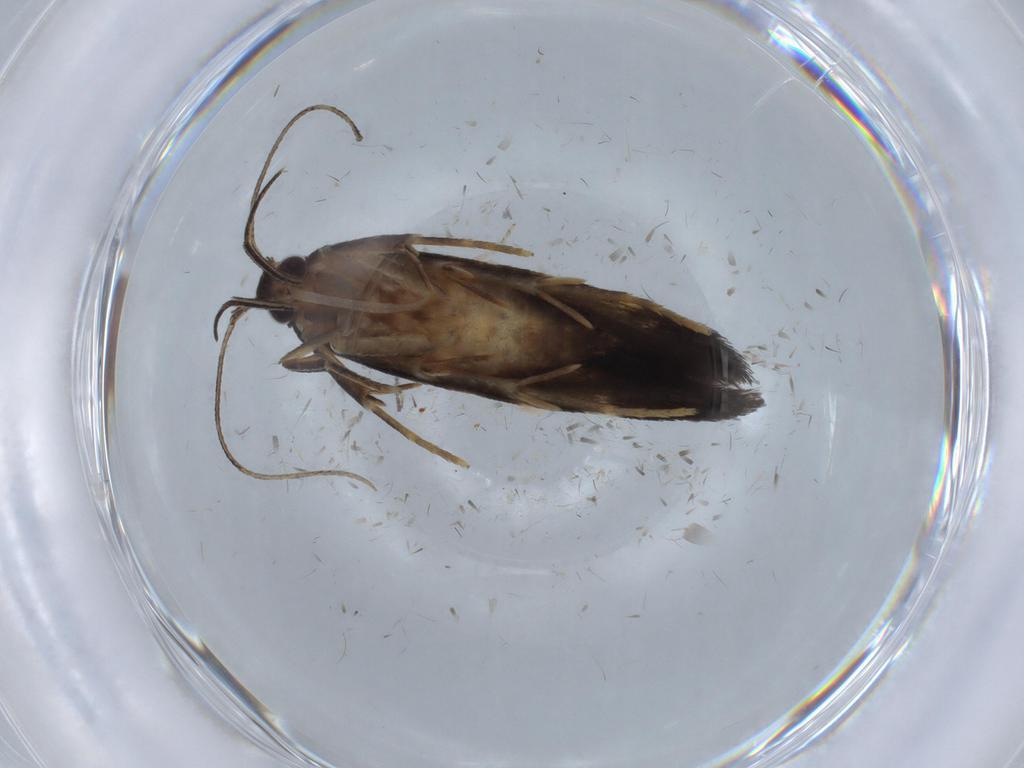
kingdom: Animalia
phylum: Arthropoda
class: Insecta
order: Lepidoptera
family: Cosmopterigidae
